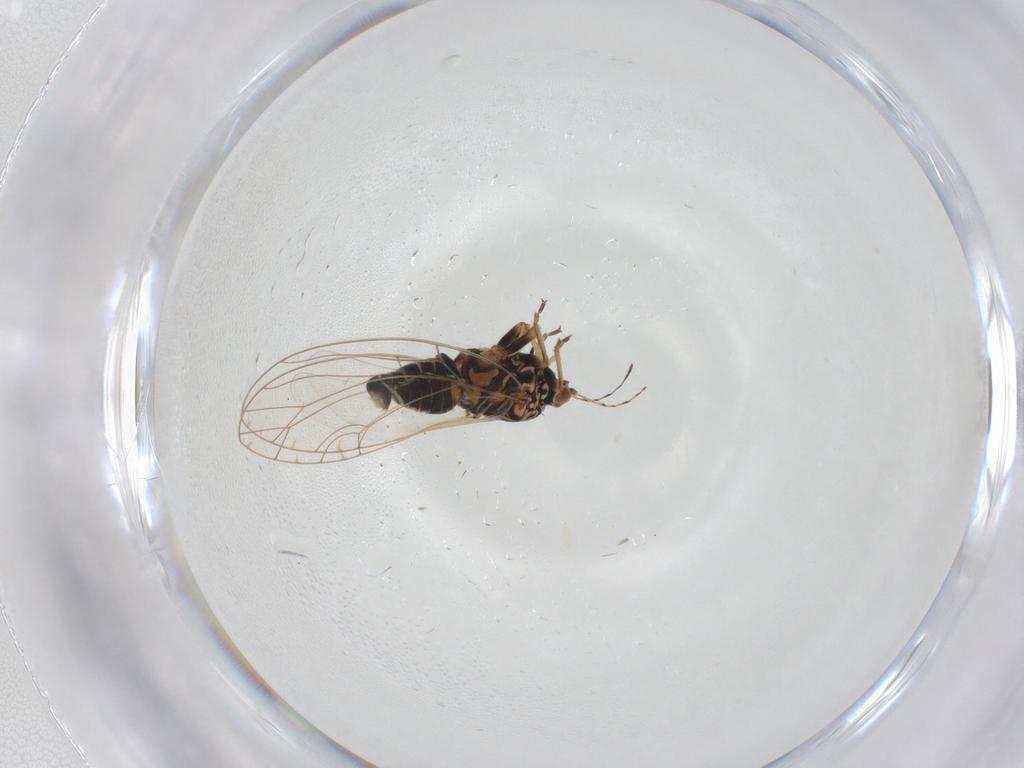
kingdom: Animalia
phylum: Arthropoda
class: Insecta
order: Hemiptera
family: Triozidae
